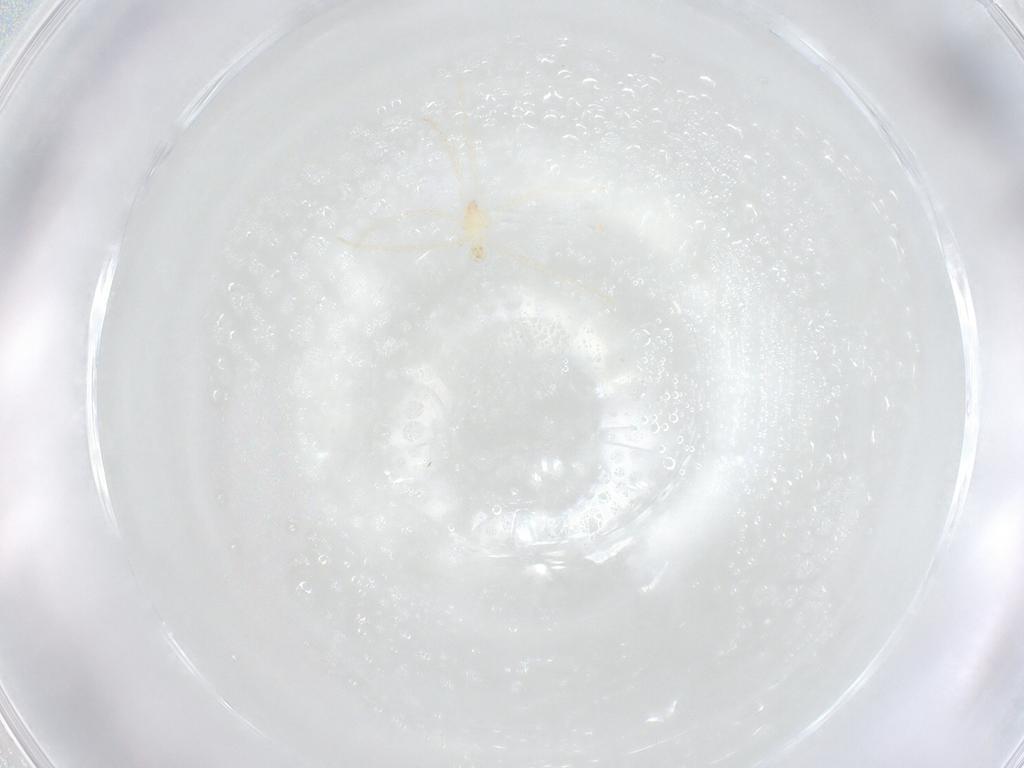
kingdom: Animalia
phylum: Arthropoda
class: Arachnida
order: Trombidiformes
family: Erythraeidae
